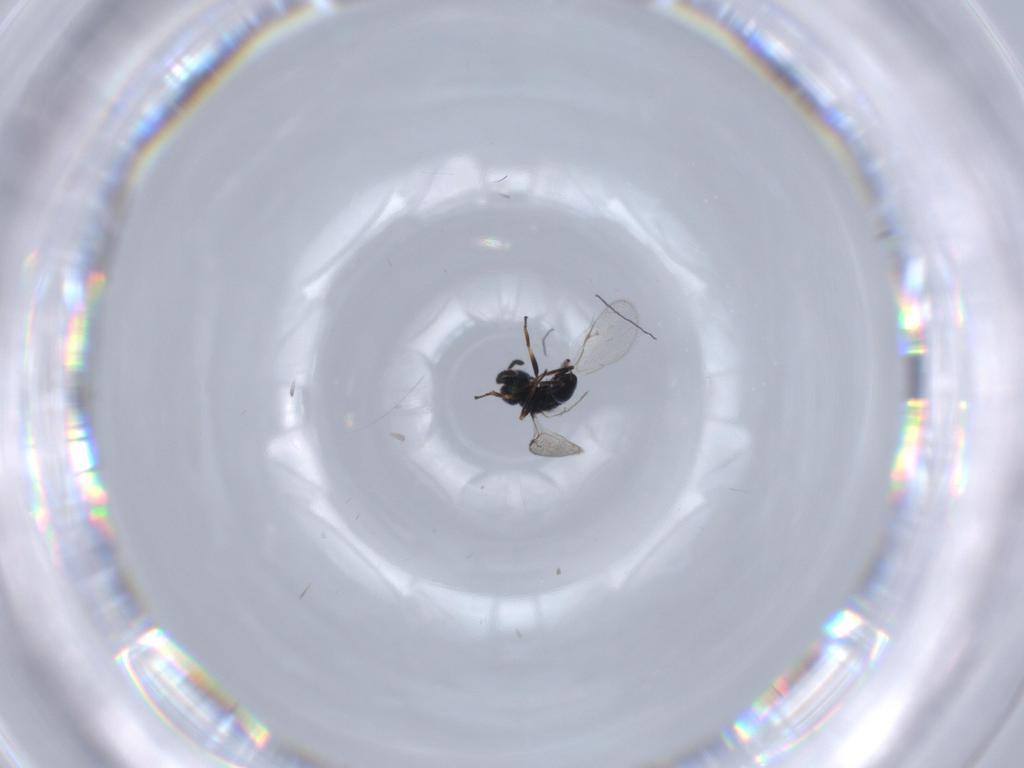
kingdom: Animalia
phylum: Arthropoda
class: Insecta
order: Hymenoptera
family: Pteromalidae
